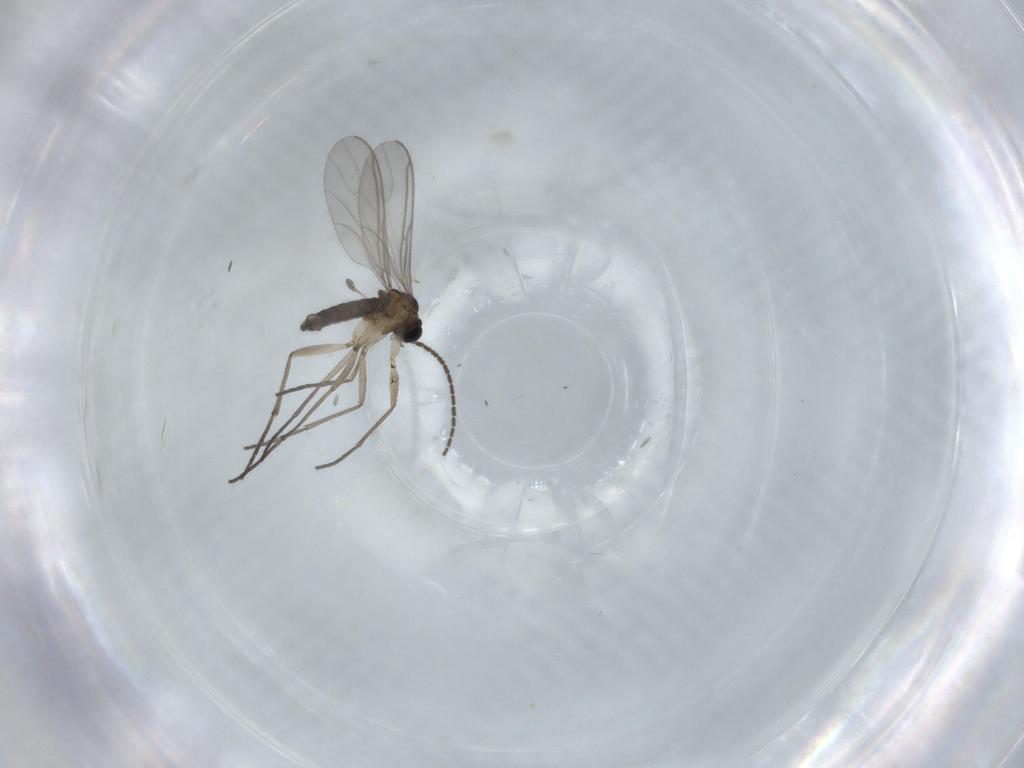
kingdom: Animalia
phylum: Arthropoda
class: Insecta
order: Diptera
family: Sciaridae
